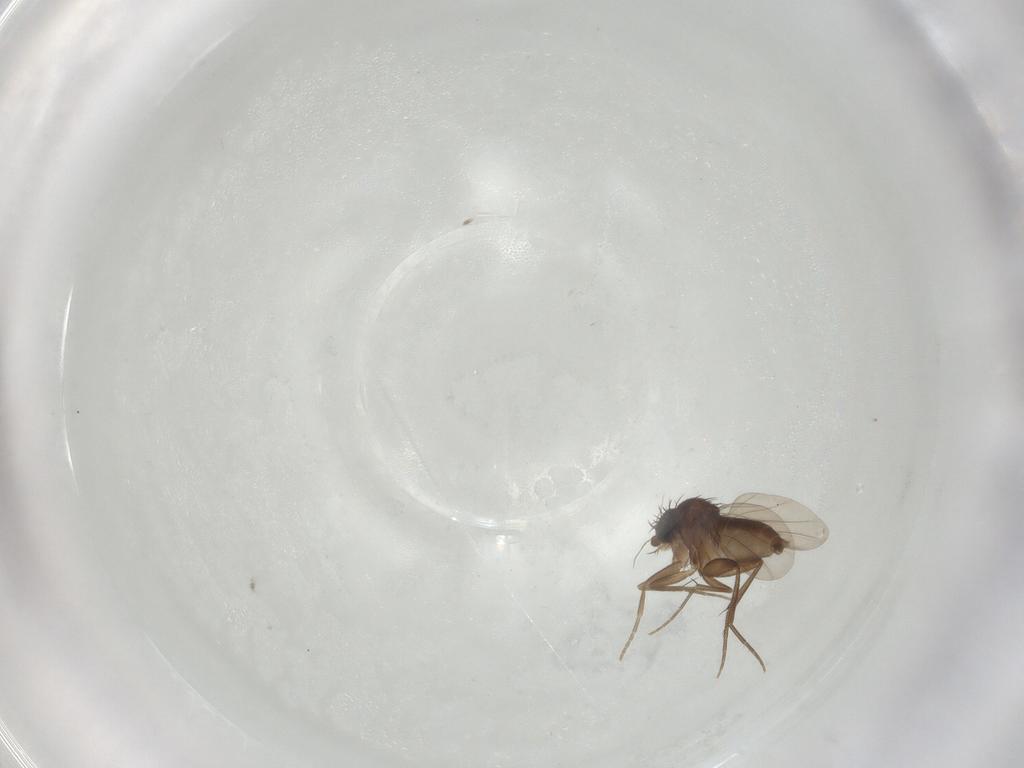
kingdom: Animalia
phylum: Arthropoda
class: Insecta
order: Diptera
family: Phoridae
